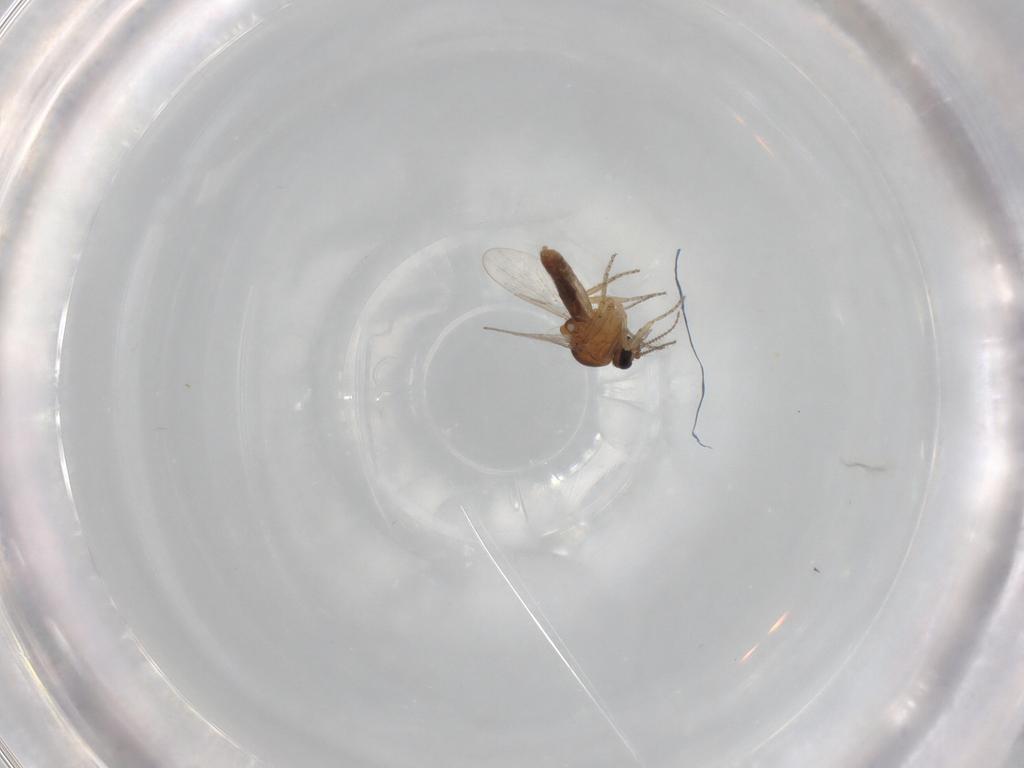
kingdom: Animalia
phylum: Arthropoda
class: Insecta
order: Diptera
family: Ceratopogonidae
